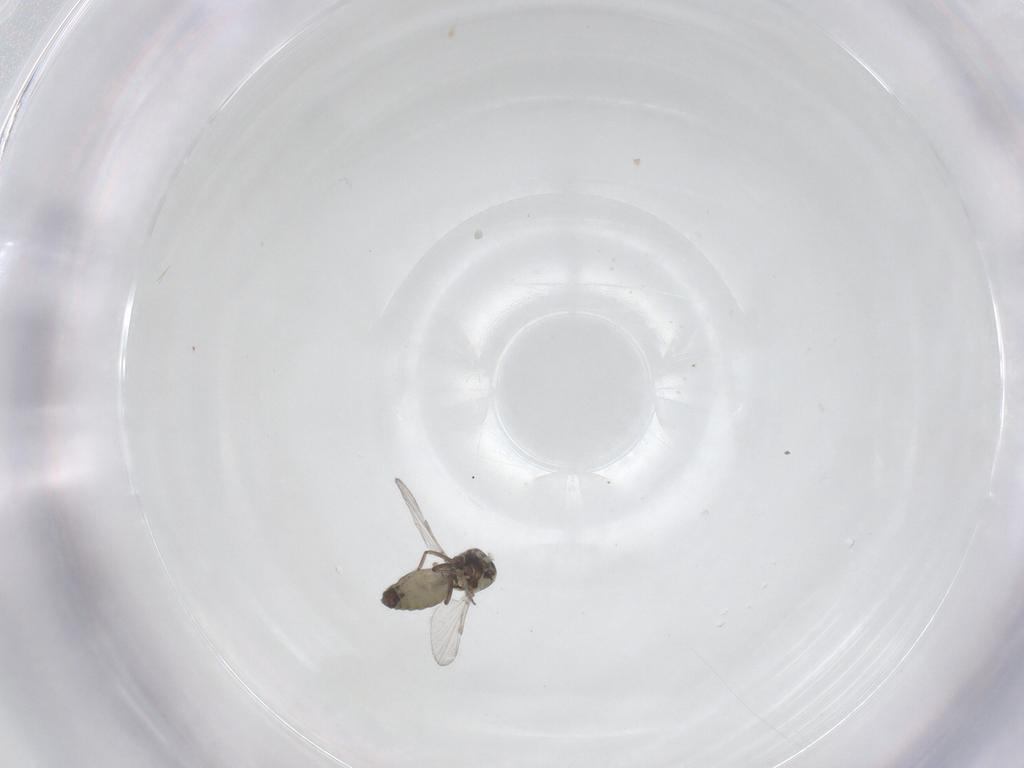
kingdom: Animalia
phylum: Arthropoda
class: Insecta
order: Diptera
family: Ceratopogonidae
